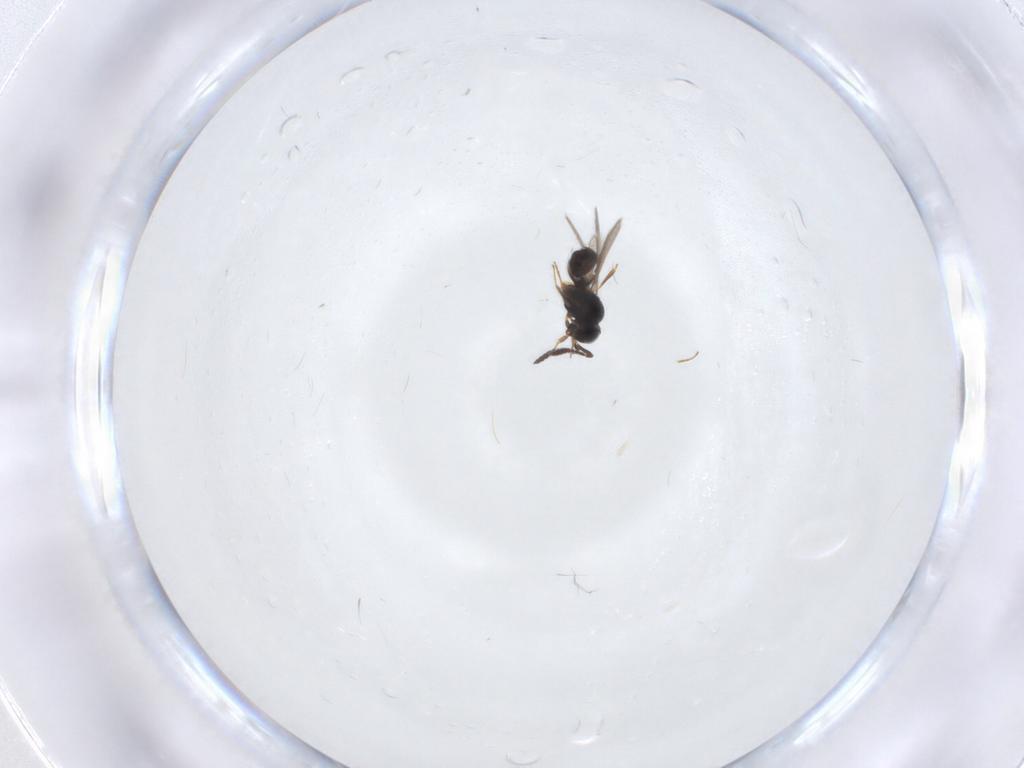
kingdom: Animalia
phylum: Arthropoda
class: Insecta
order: Hymenoptera
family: Scelionidae
